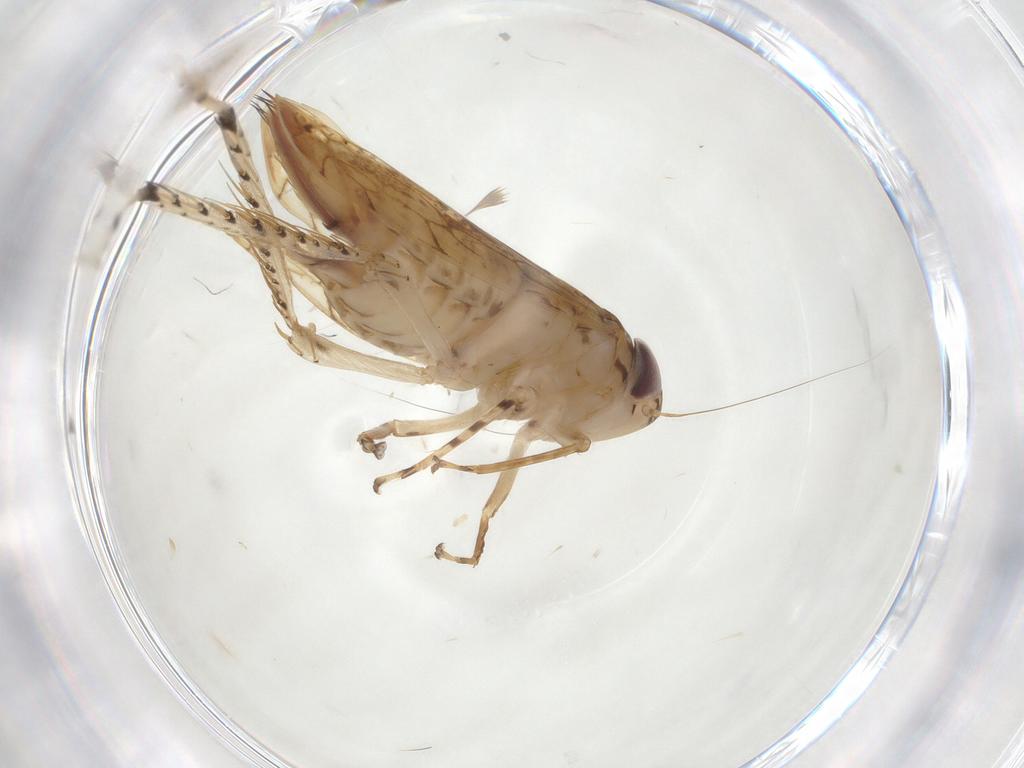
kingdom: Animalia
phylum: Arthropoda
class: Insecta
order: Hemiptera
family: Cicadellidae
